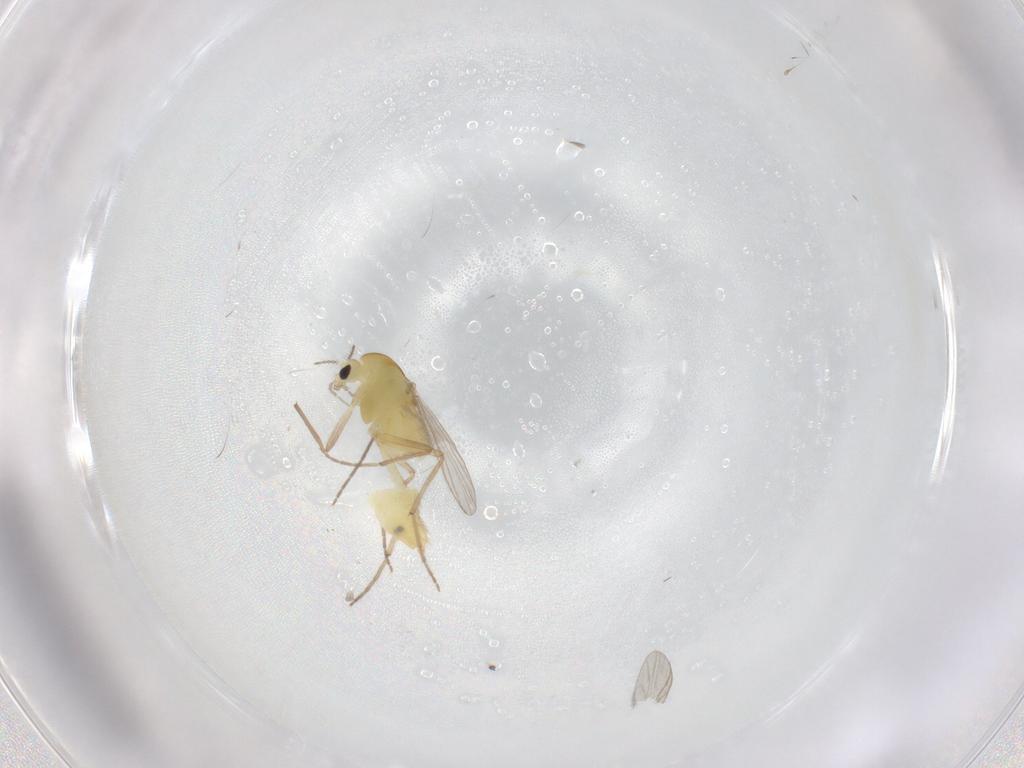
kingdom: Animalia
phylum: Arthropoda
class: Insecta
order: Diptera
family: Chironomidae
